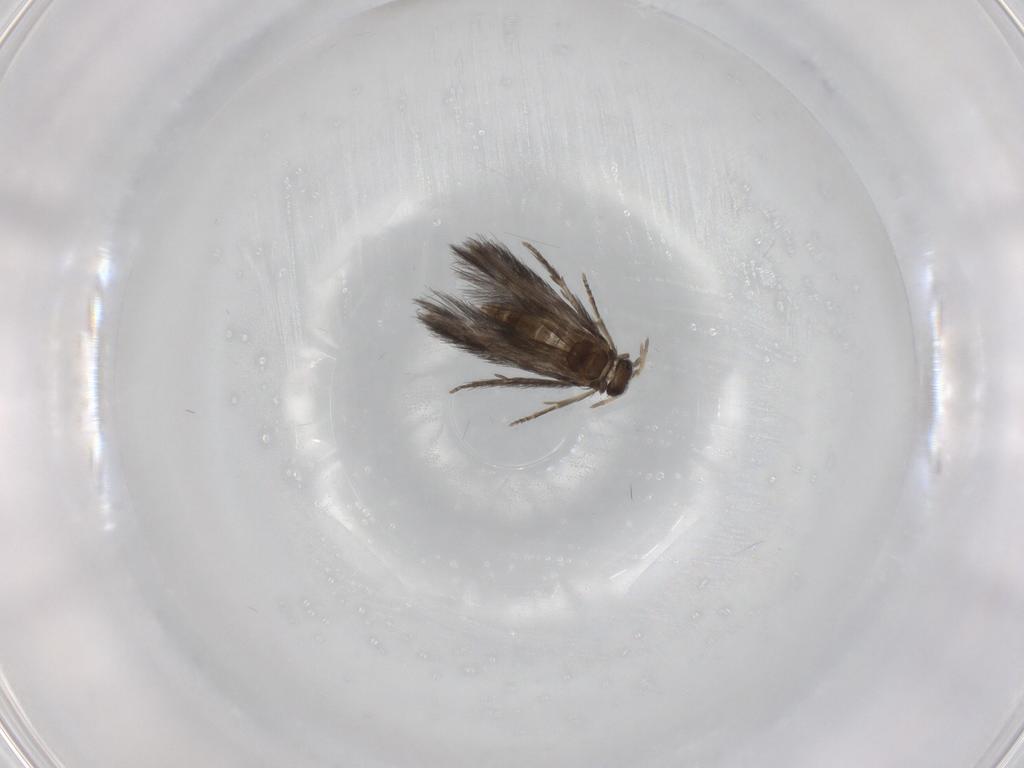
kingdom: Animalia
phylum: Arthropoda
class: Insecta
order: Trichoptera
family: Hydroptilidae
